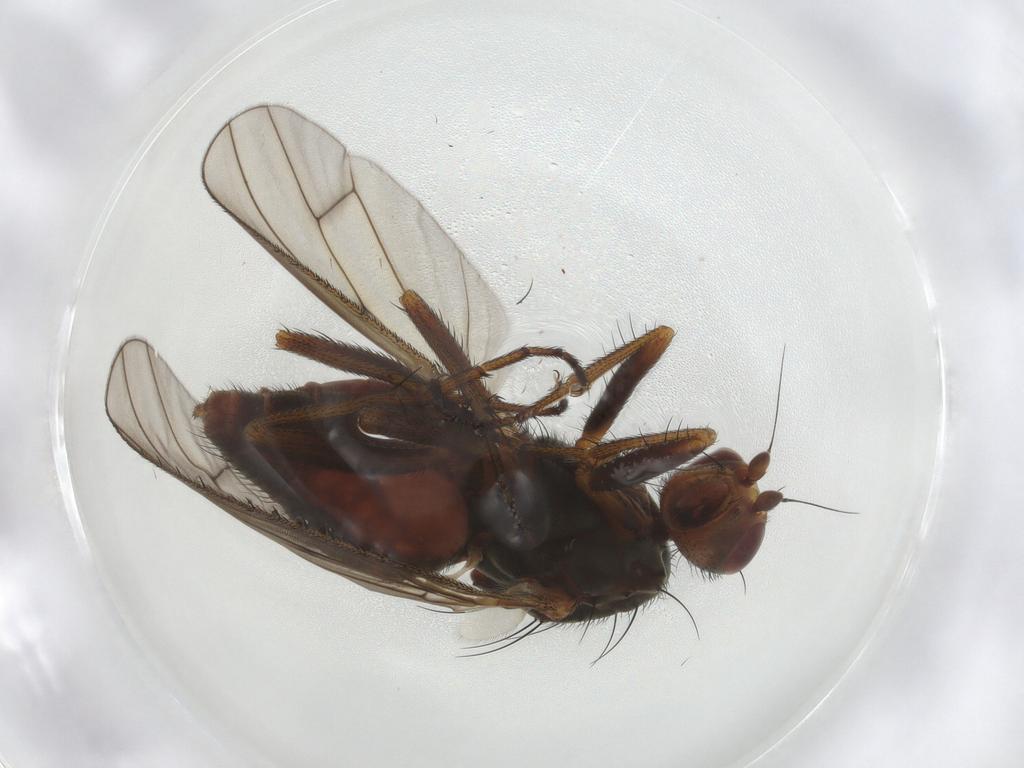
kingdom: Animalia
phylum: Arthropoda
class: Insecta
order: Diptera
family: Heleomyzidae
